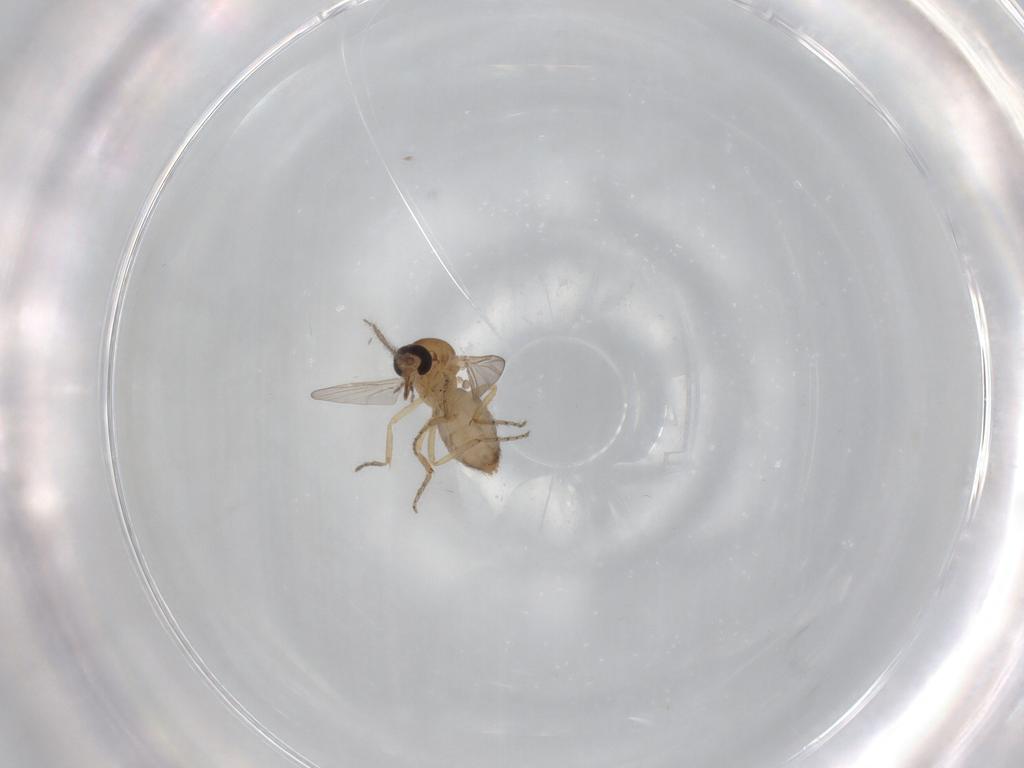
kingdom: Animalia
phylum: Arthropoda
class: Insecta
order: Diptera
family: Ceratopogonidae
